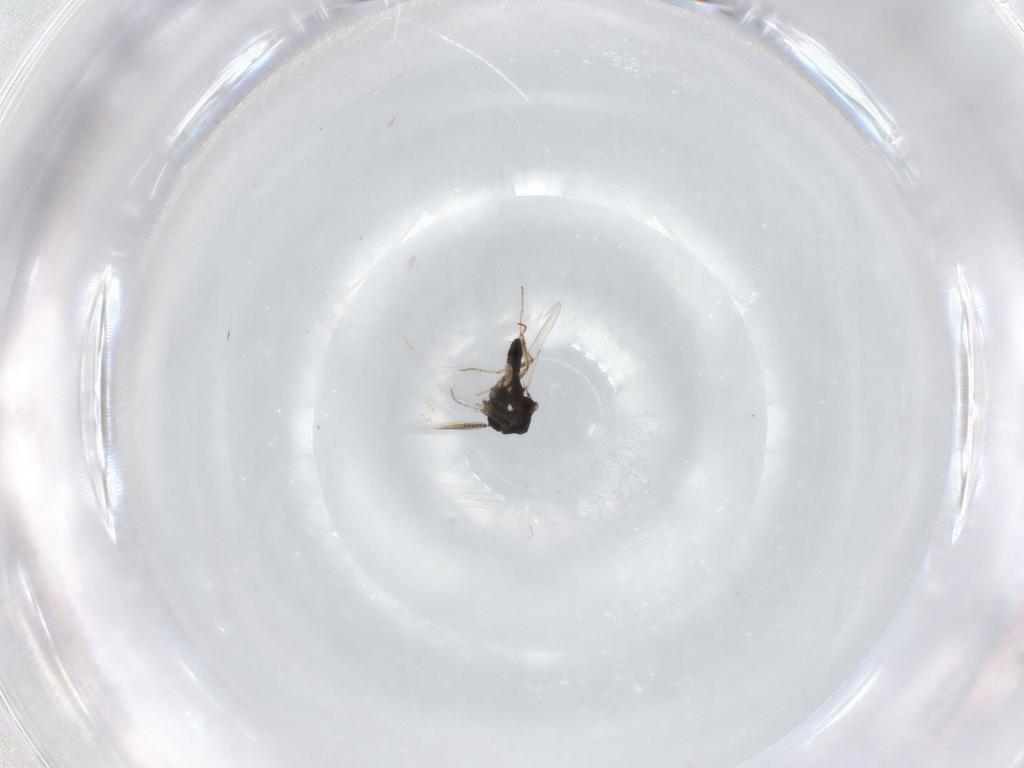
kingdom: Animalia
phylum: Arthropoda
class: Insecta
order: Diptera
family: Ceratopogonidae
